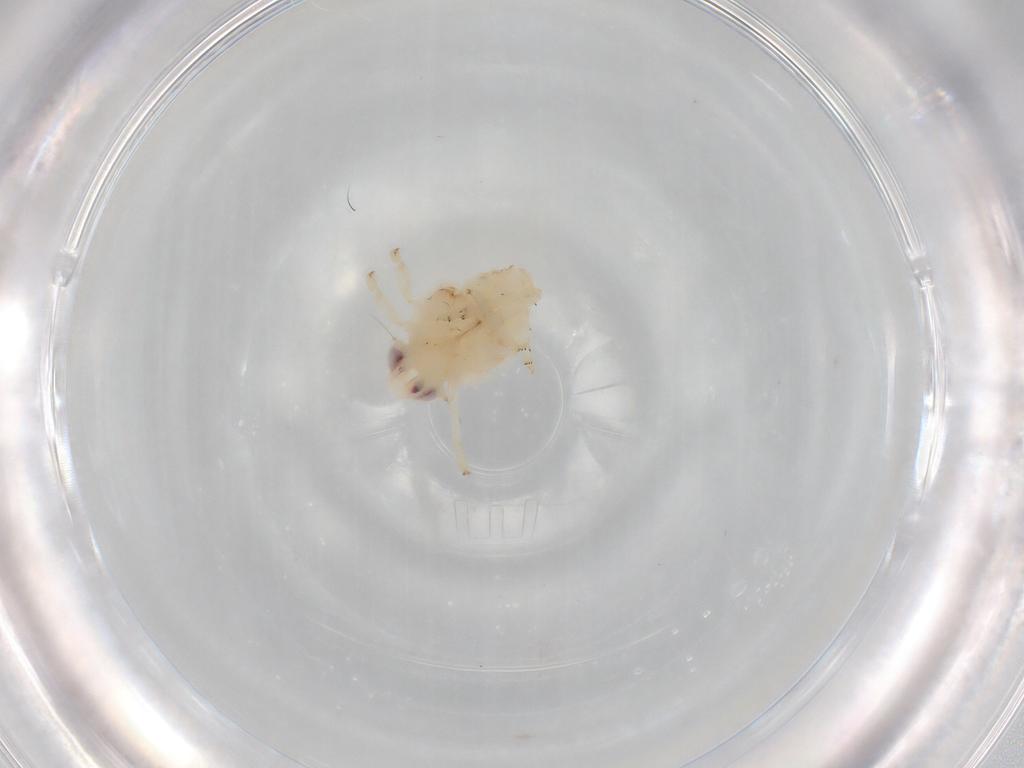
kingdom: Animalia
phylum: Arthropoda
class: Insecta
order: Hemiptera
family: Nogodinidae
